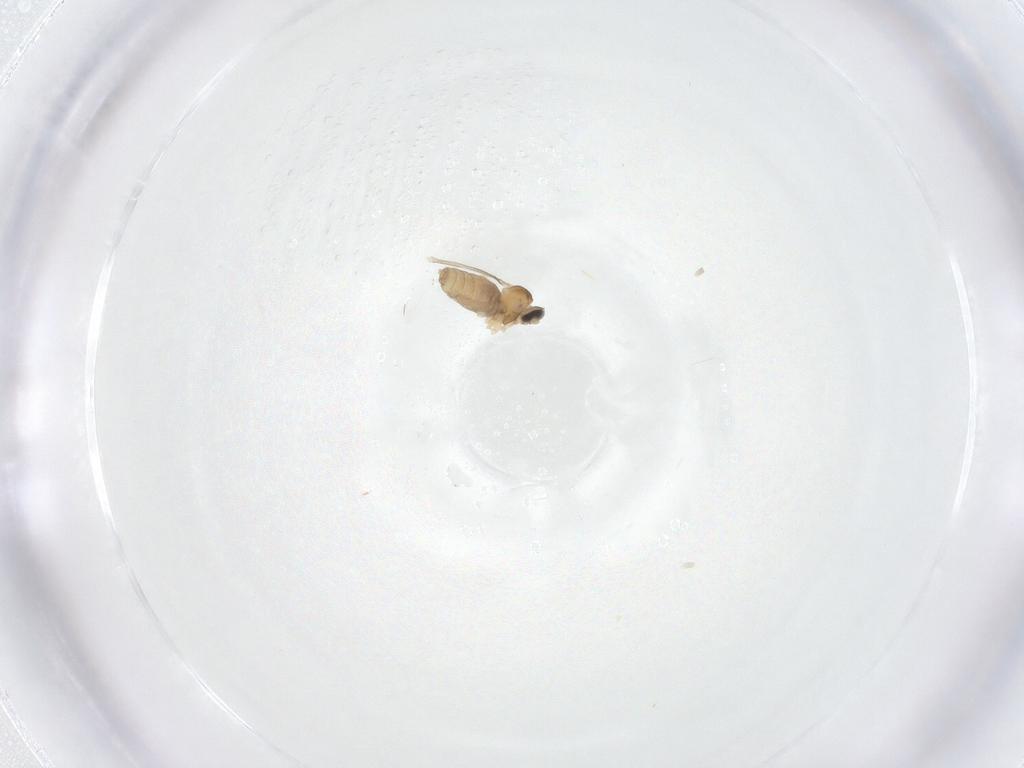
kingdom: Animalia
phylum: Arthropoda
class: Insecta
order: Diptera
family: Cecidomyiidae
